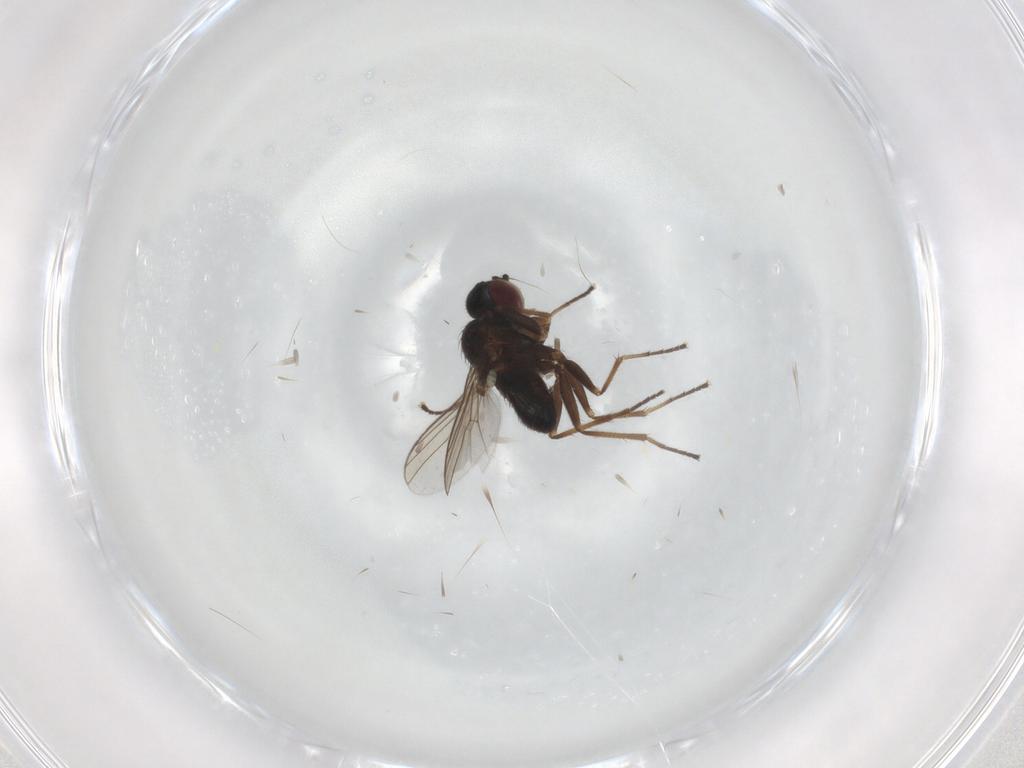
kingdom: Animalia
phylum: Arthropoda
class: Insecta
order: Diptera
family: Dolichopodidae
